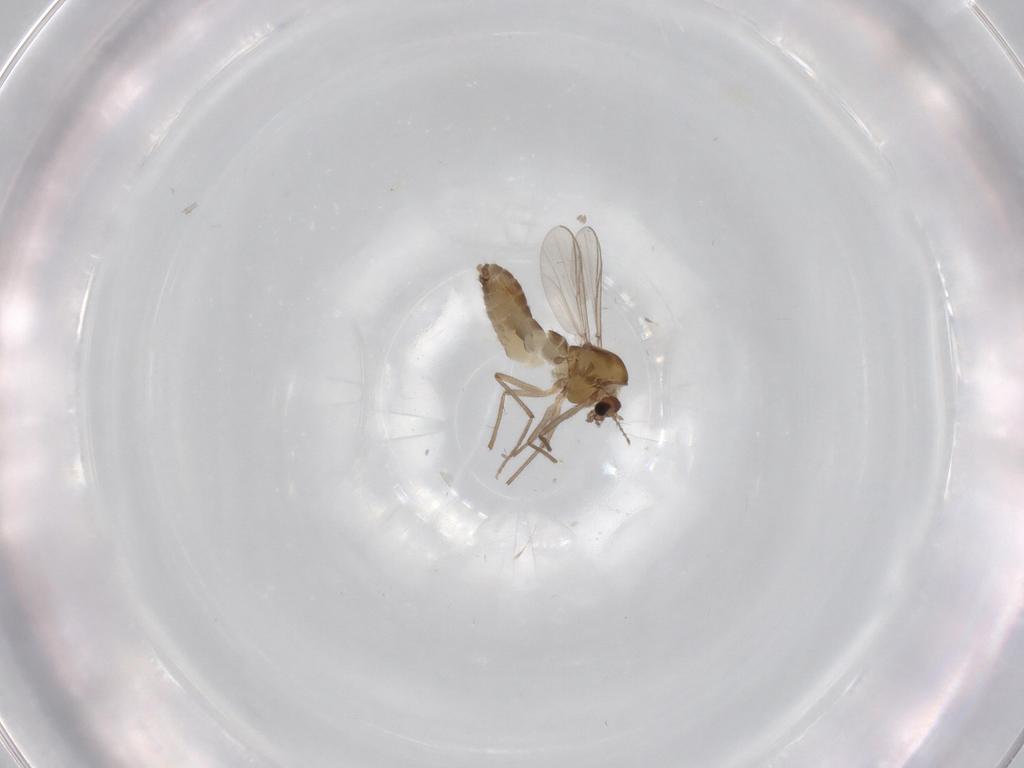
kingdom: Animalia
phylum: Arthropoda
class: Insecta
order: Diptera
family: Chironomidae
